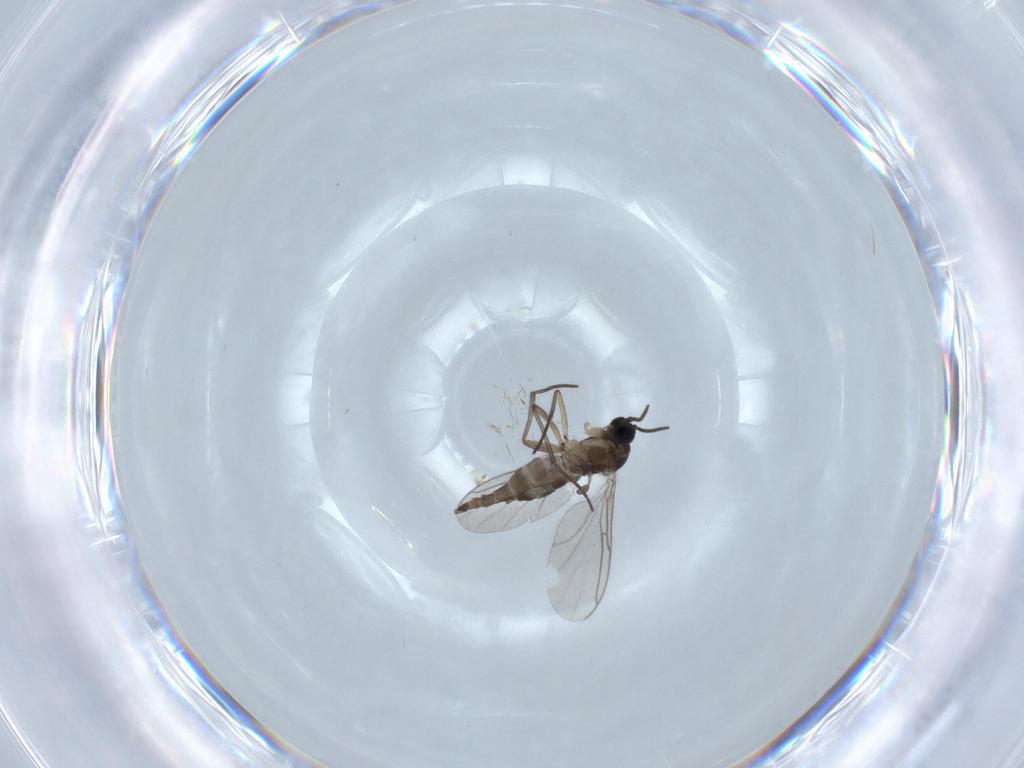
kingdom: Animalia
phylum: Arthropoda
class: Insecta
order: Diptera
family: Sciaridae
